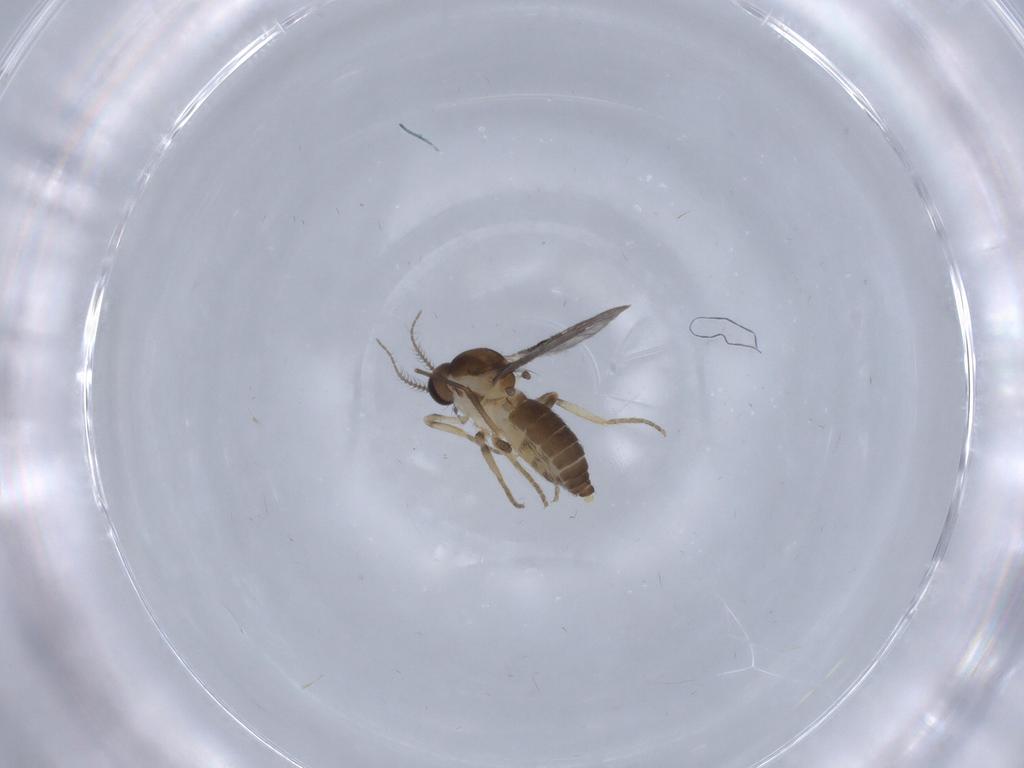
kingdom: Animalia
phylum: Arthropoda
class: Insecta
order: Diptera
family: Ceratopogonidae
